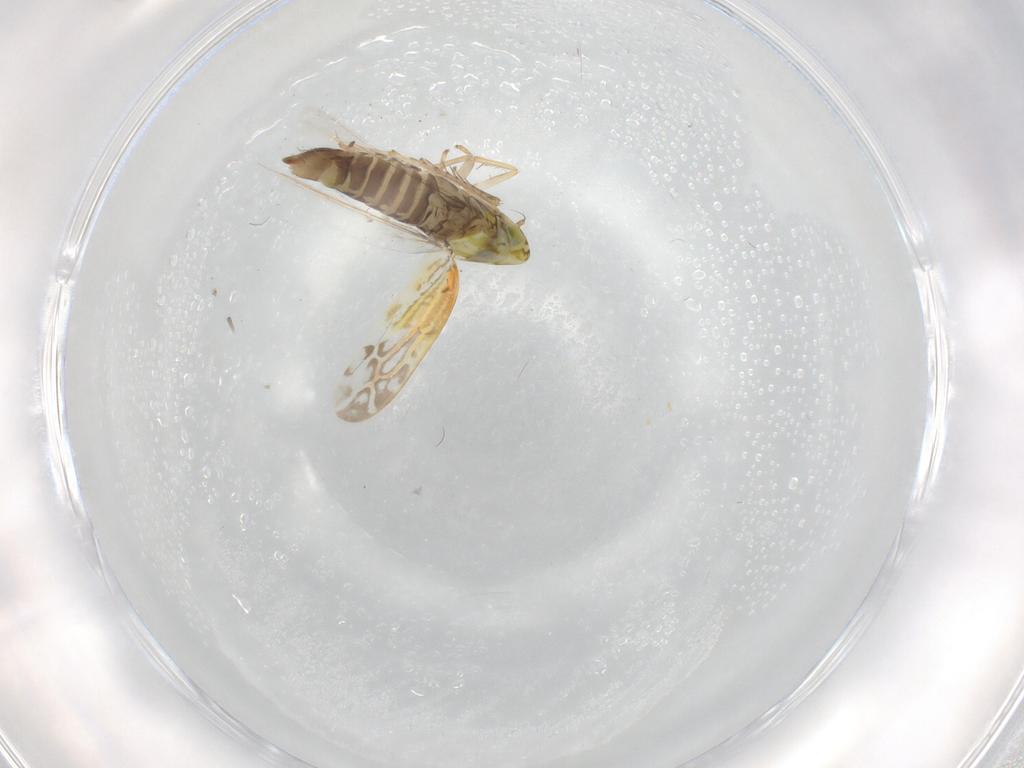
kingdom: Animalia
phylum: Arthropoda
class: Insecta
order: Hemiptera
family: Cicadellidae
